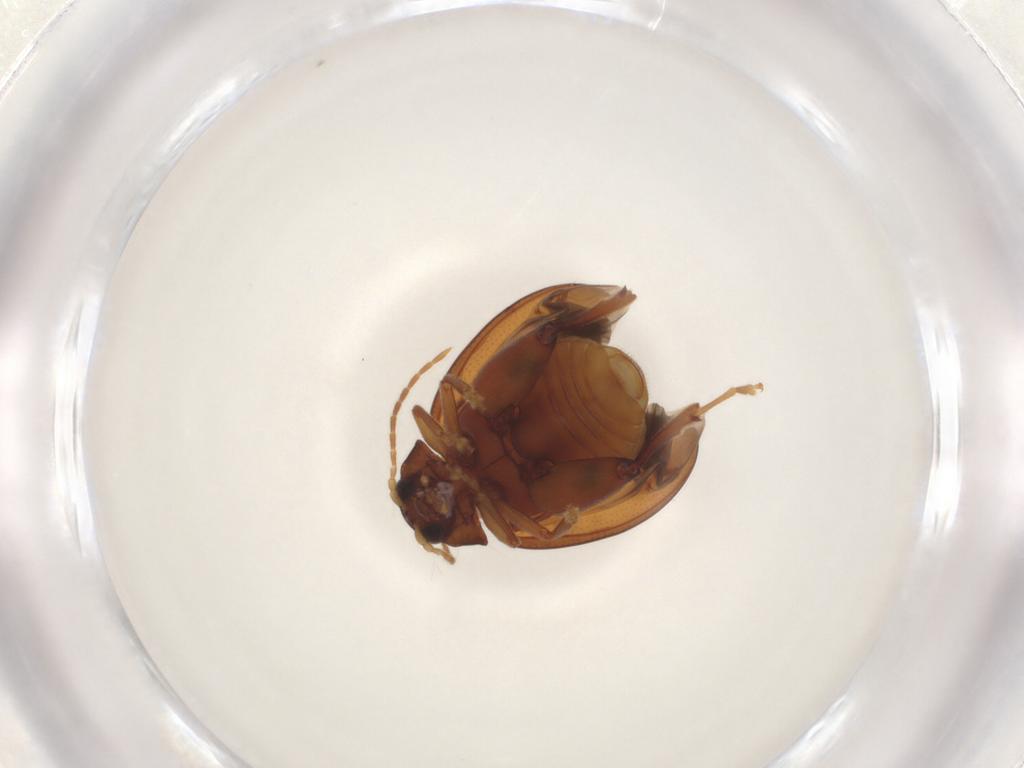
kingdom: Animalia
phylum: Arthropoda
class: Insecta
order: Coleoptera
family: Chrysomelidae
